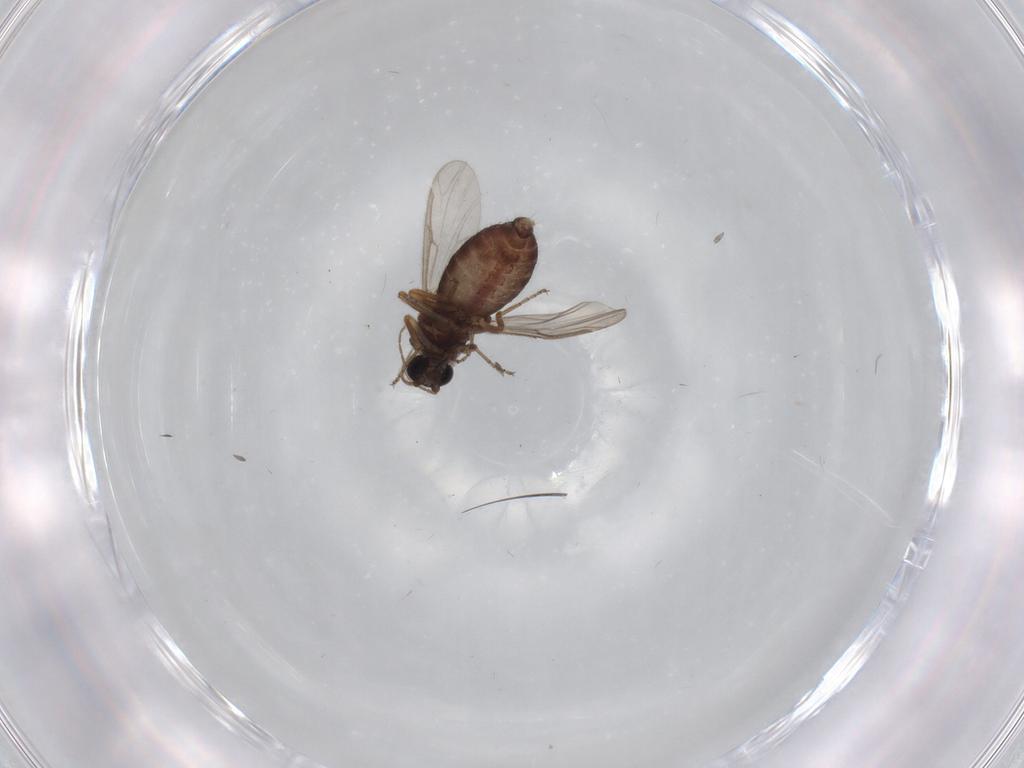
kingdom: Animalia
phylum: Arthropoda
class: Insecta
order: Diptera
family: Ceratopogonidae
